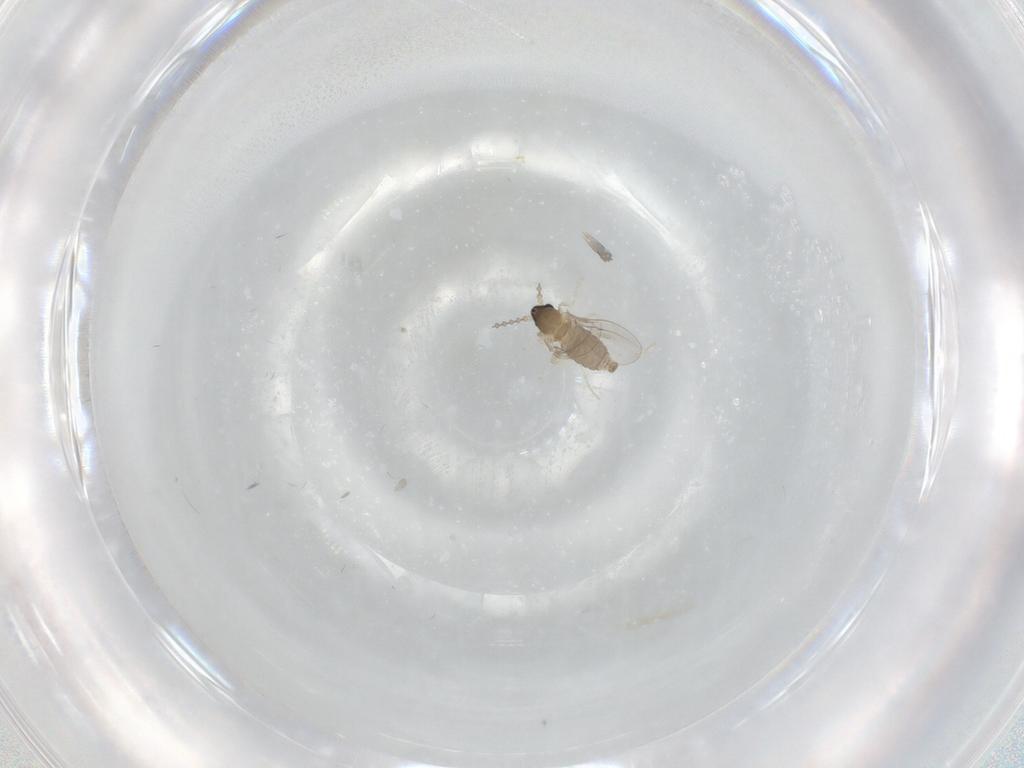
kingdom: Animalia
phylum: Arthropoda
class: Insecta
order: Diptera
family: Cecidomyiidae
